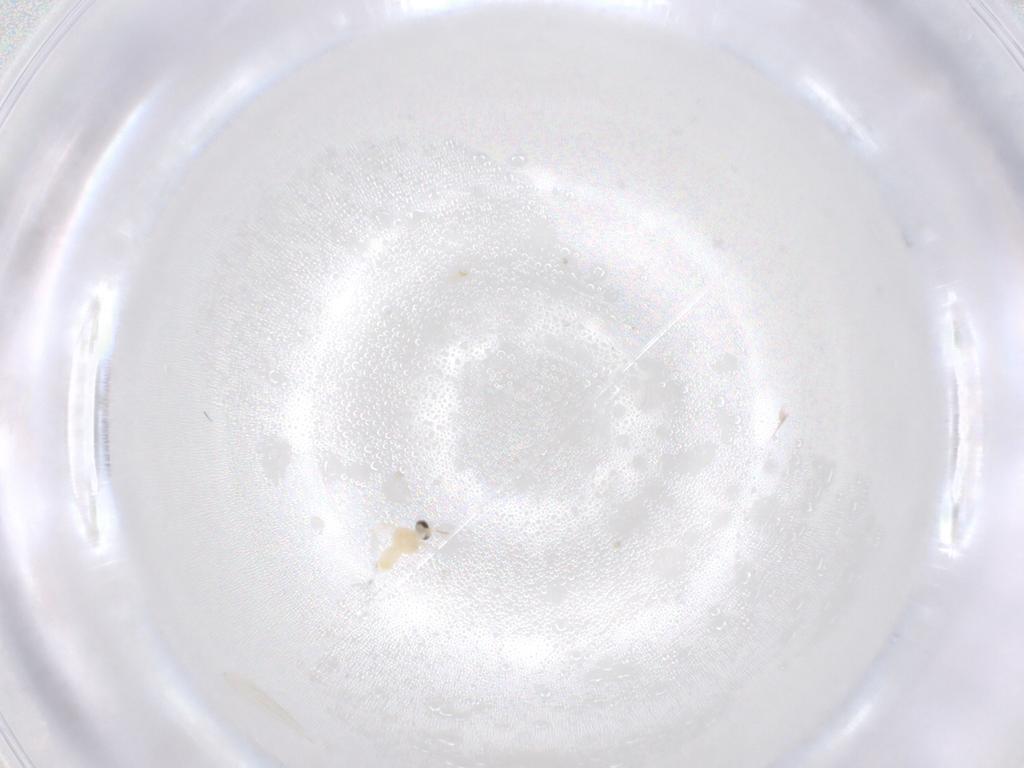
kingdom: Animalia
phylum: Arthropoda
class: Insecta
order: Diptera
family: Cecidomyiidae
